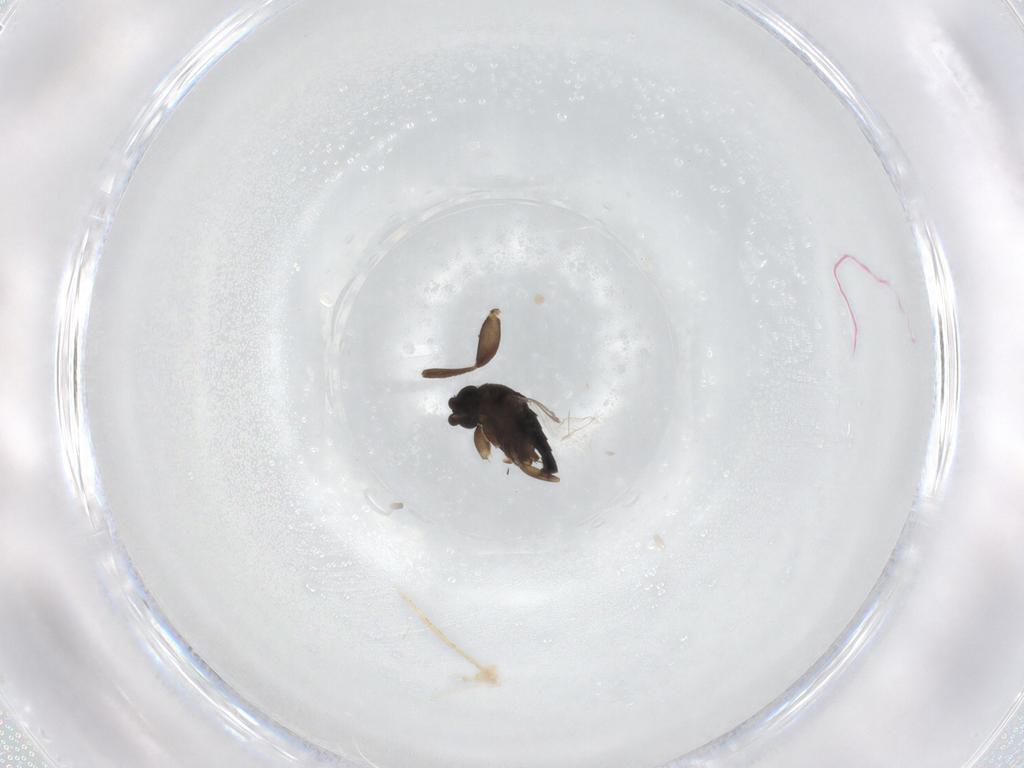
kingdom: Animalia
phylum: Arthropoda
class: Insecta
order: Diptera
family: Phoridae
